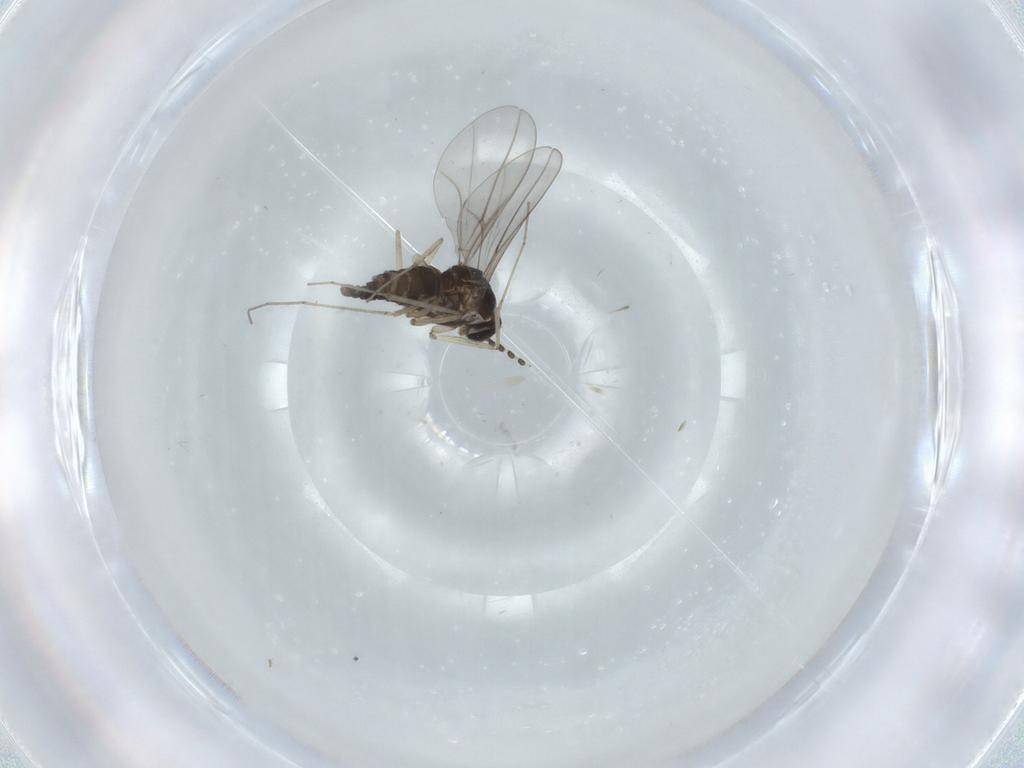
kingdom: Animalia
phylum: Arthropoda
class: Insecta
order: Diptera
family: Cecidomyiidae
